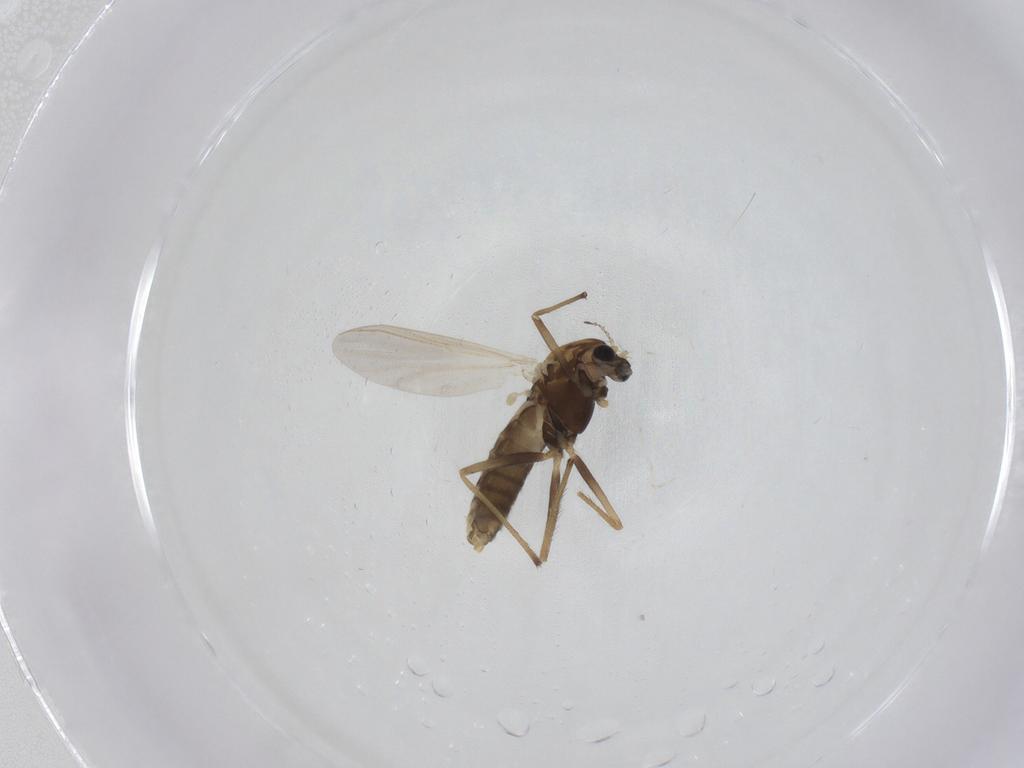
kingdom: Animalia
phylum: Arthropoda
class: Insecta
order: Diptera
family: Chironomidae
